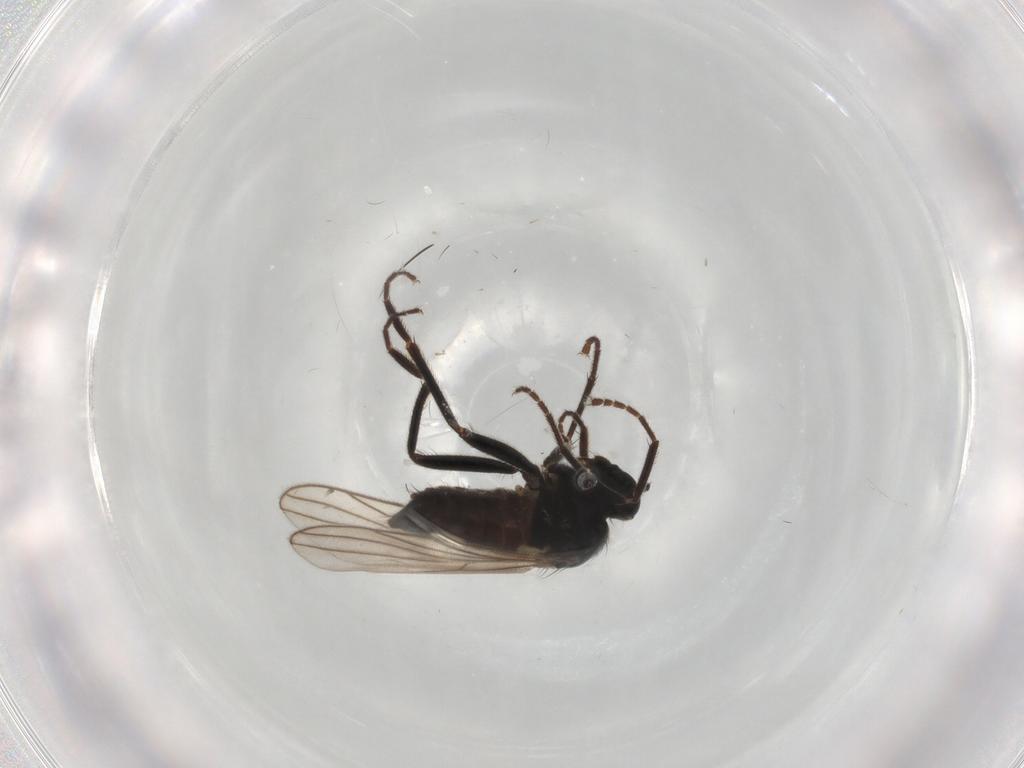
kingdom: Animalia
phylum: Arthropoda
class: Insecta
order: Diptera
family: Hybotidae
